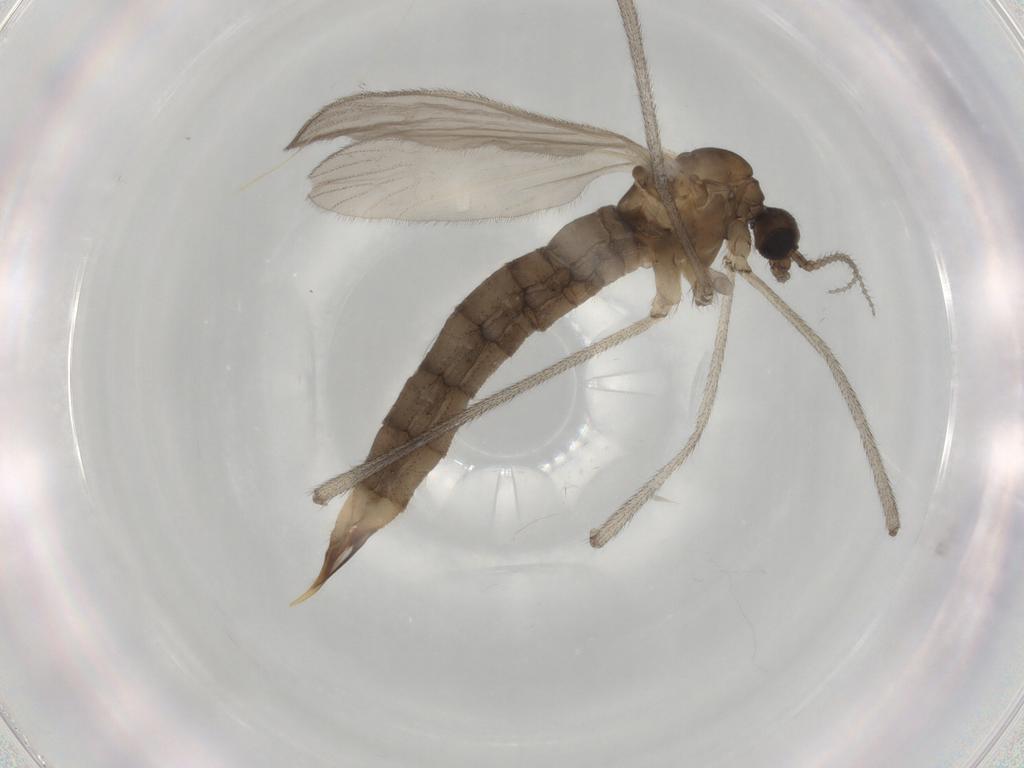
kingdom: Animalia
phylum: Arthropoda
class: Insecta
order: Diptera
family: Limoniidae
